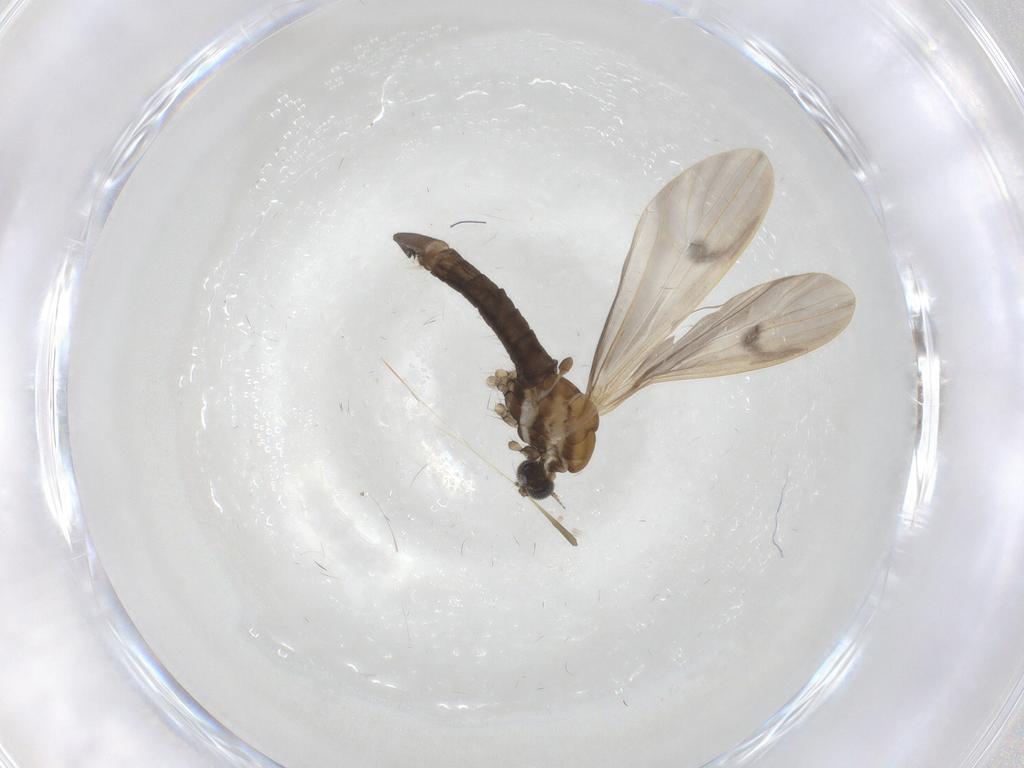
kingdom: Animalia
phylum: Arthropoda
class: Insecta
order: Diptera
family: Limoniidae
